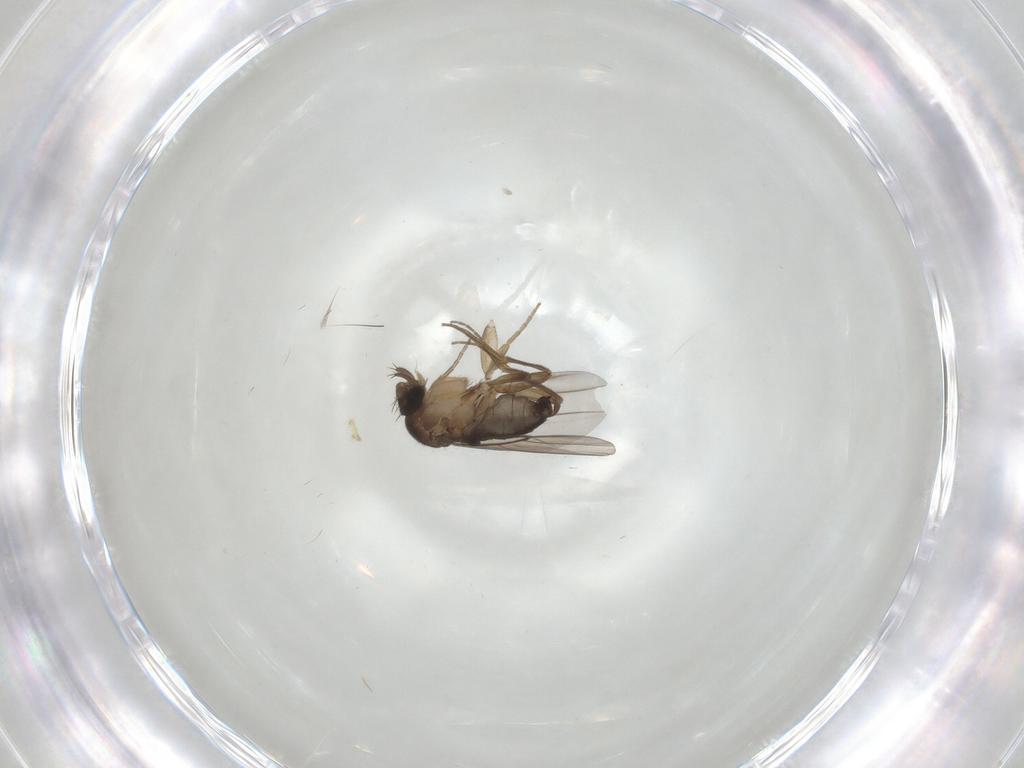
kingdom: Animalia
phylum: Arthropoda
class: Insecta
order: Diptera
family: Phoridae
